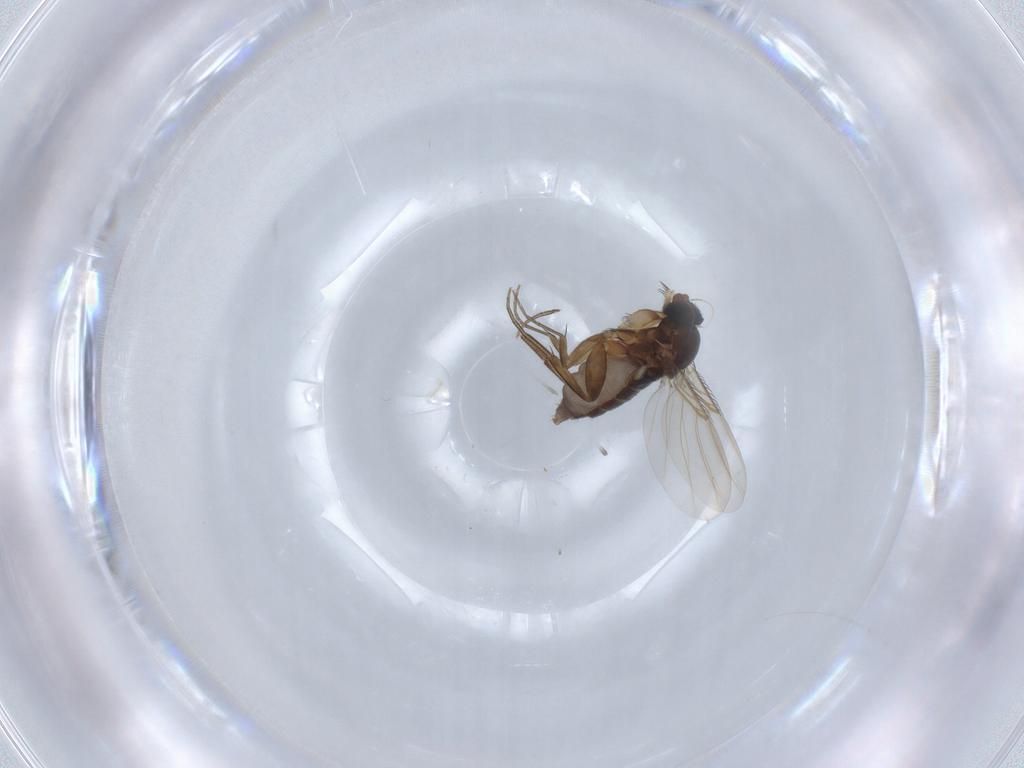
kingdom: Animalia
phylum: Arthropoda
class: Insecta
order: Diptera
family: Phoridae
